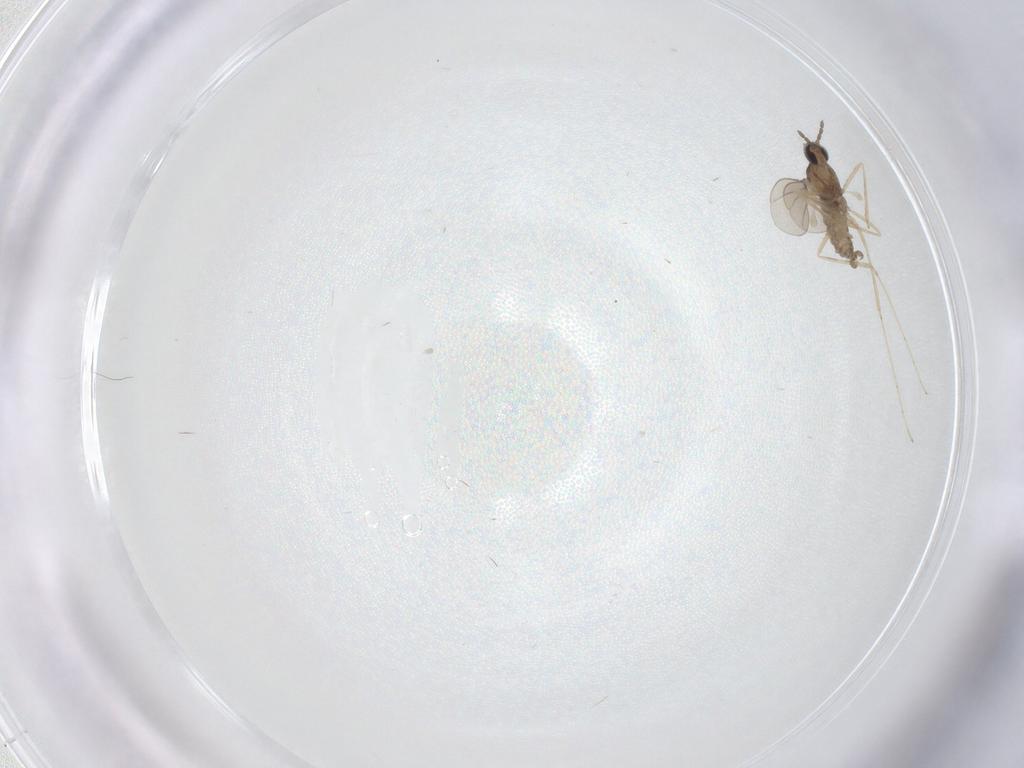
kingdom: Animalia
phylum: Arthropoda
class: Insecta
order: Diptera
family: Cecidomyiidae
